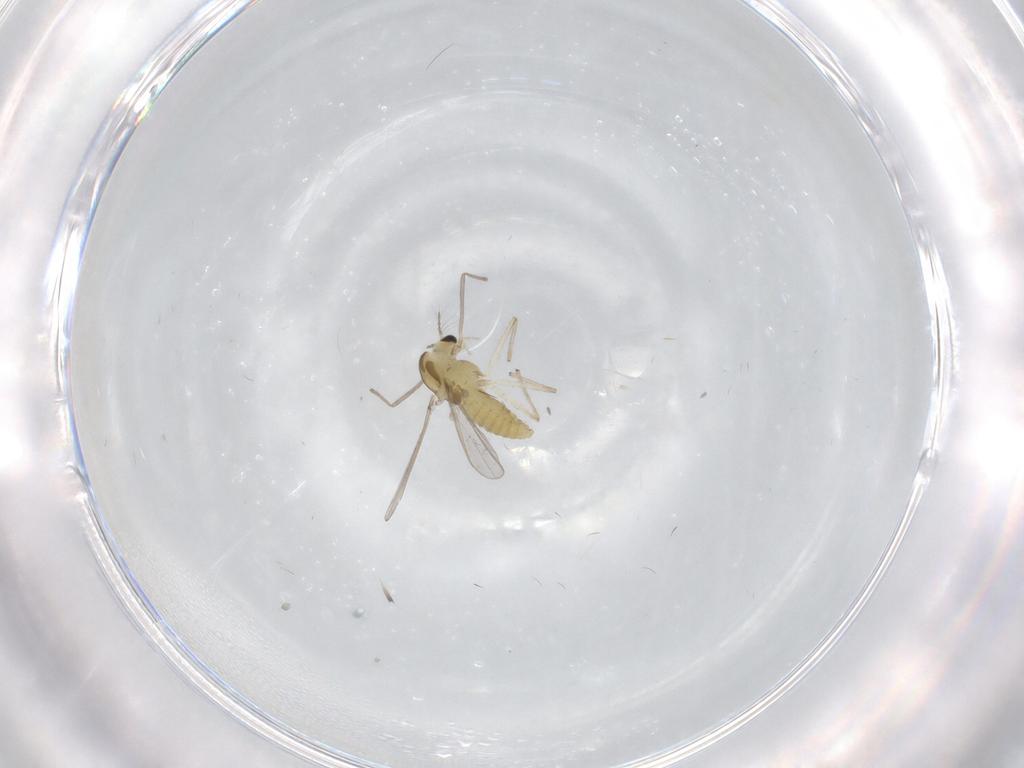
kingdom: Animalia
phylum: Arthropoda
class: Insecta
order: Diptera
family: Chironomidae
